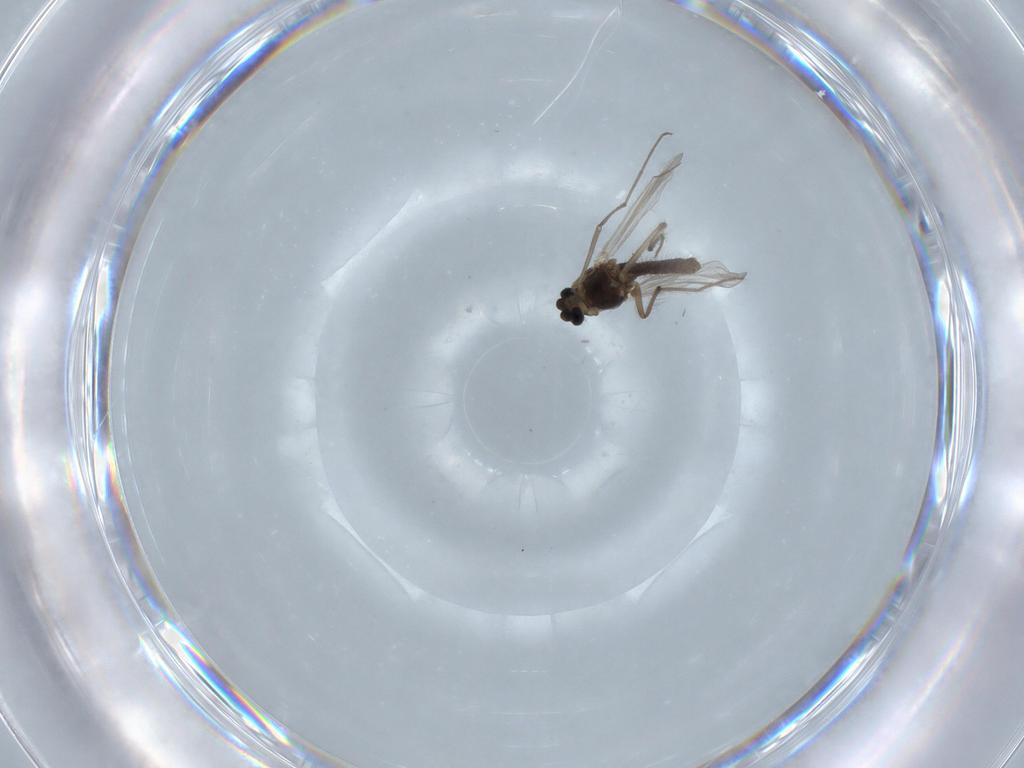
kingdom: Animalia
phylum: Arthropoda
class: Insecta
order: Diptera
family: Chironomidae
